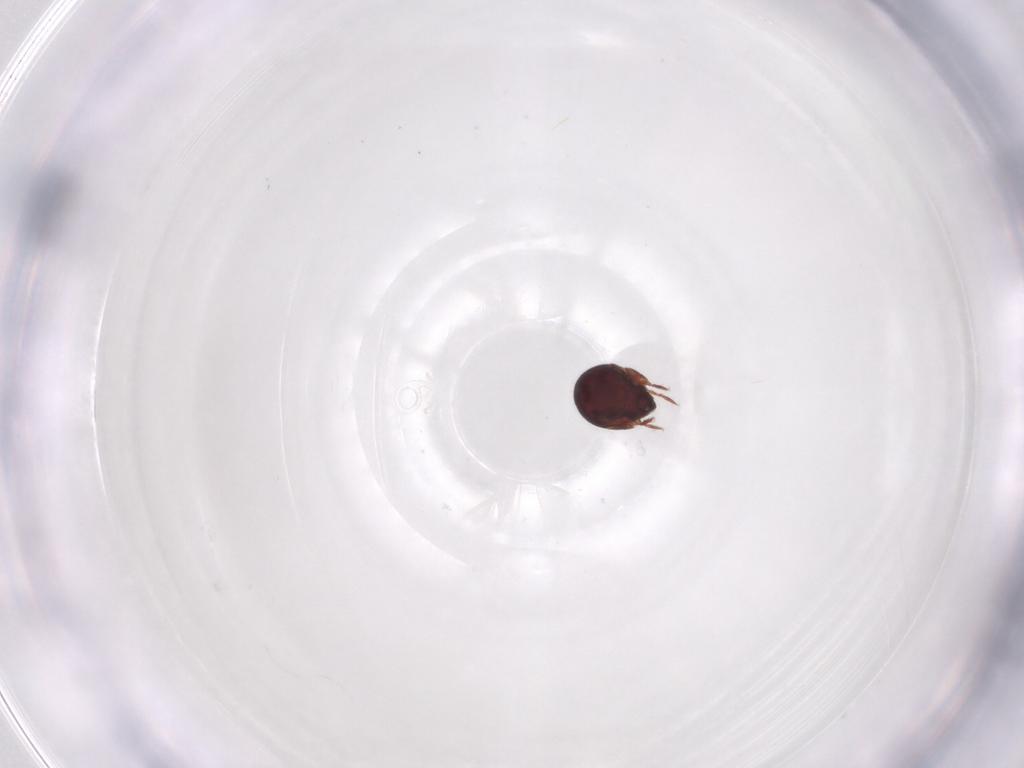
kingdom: Animalia
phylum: Arthropoda
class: Arachnida
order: Sarcoptiformes
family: Humerobatidae
